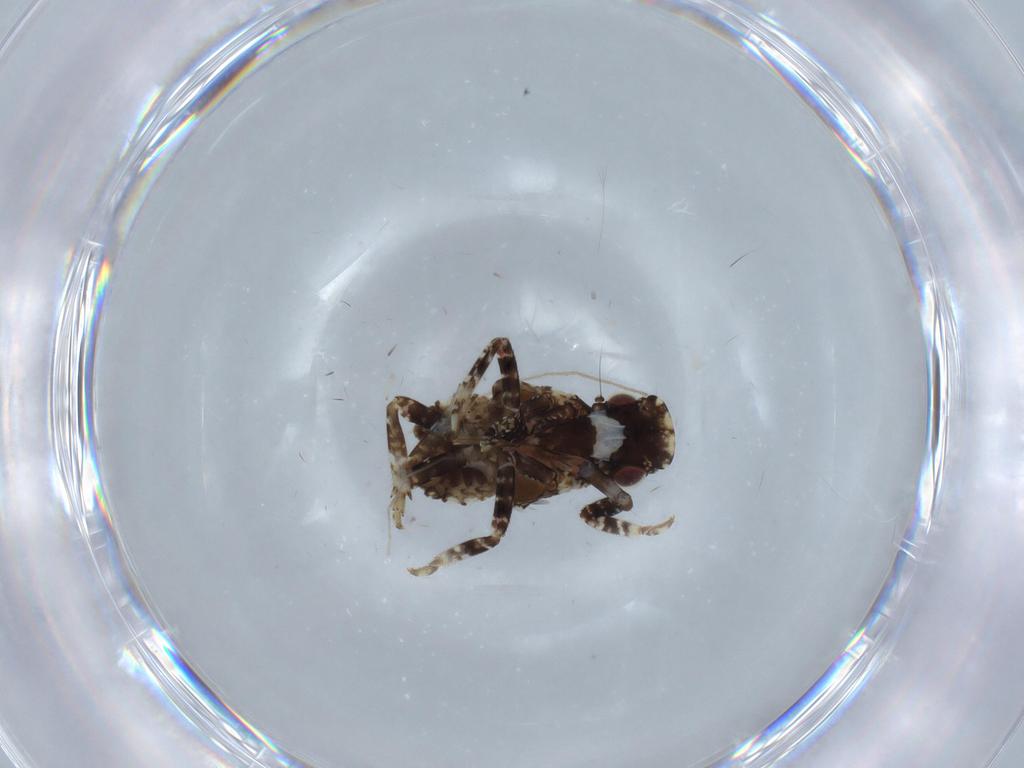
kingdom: Animalia
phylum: Arthropoda
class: Insecta
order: Hemiptera
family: Fulgoridae
